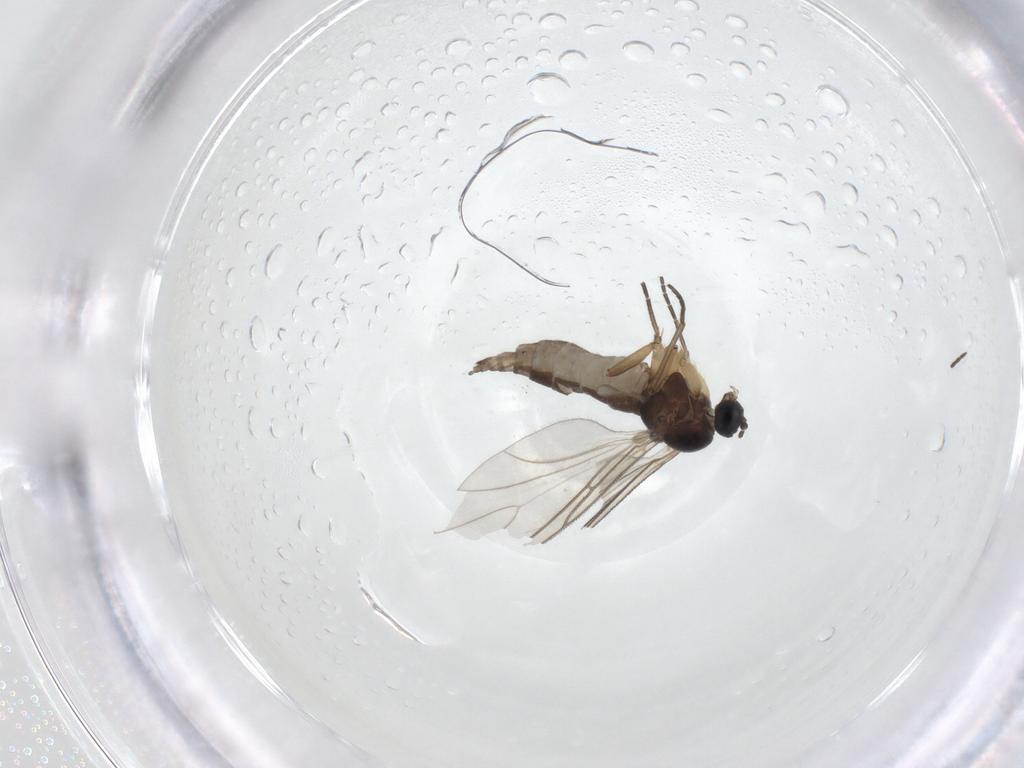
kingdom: Animalia
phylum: Arthropoda
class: Insecta
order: Diptera
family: Sciaridae
